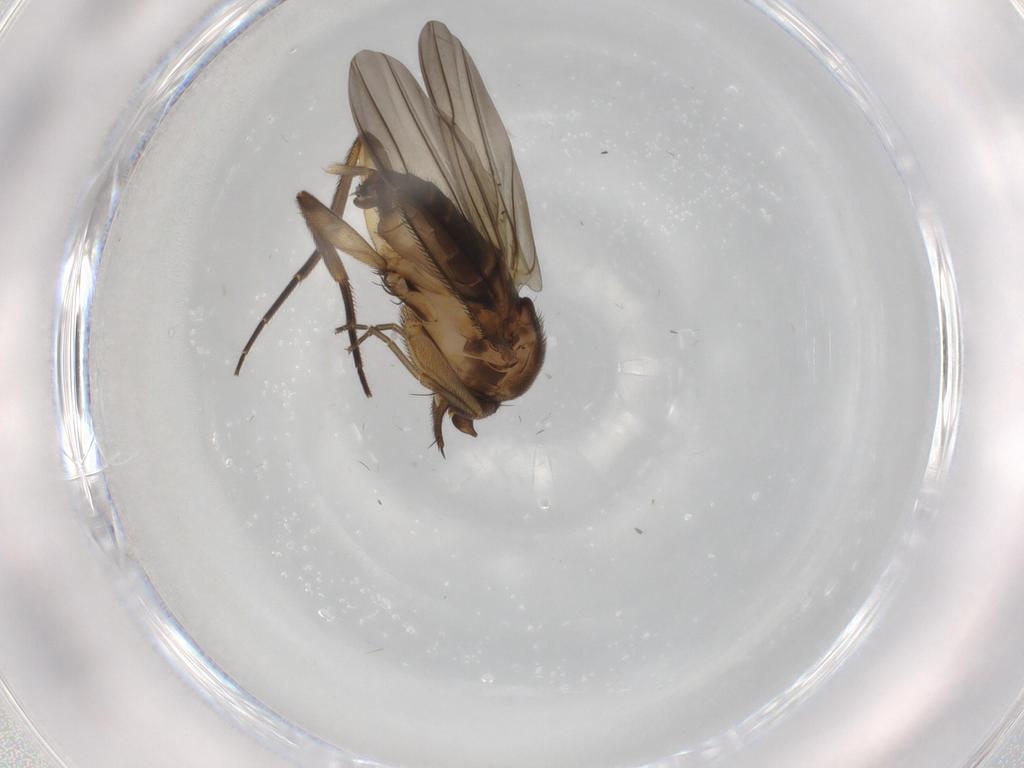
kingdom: Animalia
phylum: Arthropoda
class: Insecta
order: Diptera
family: Phoridae
